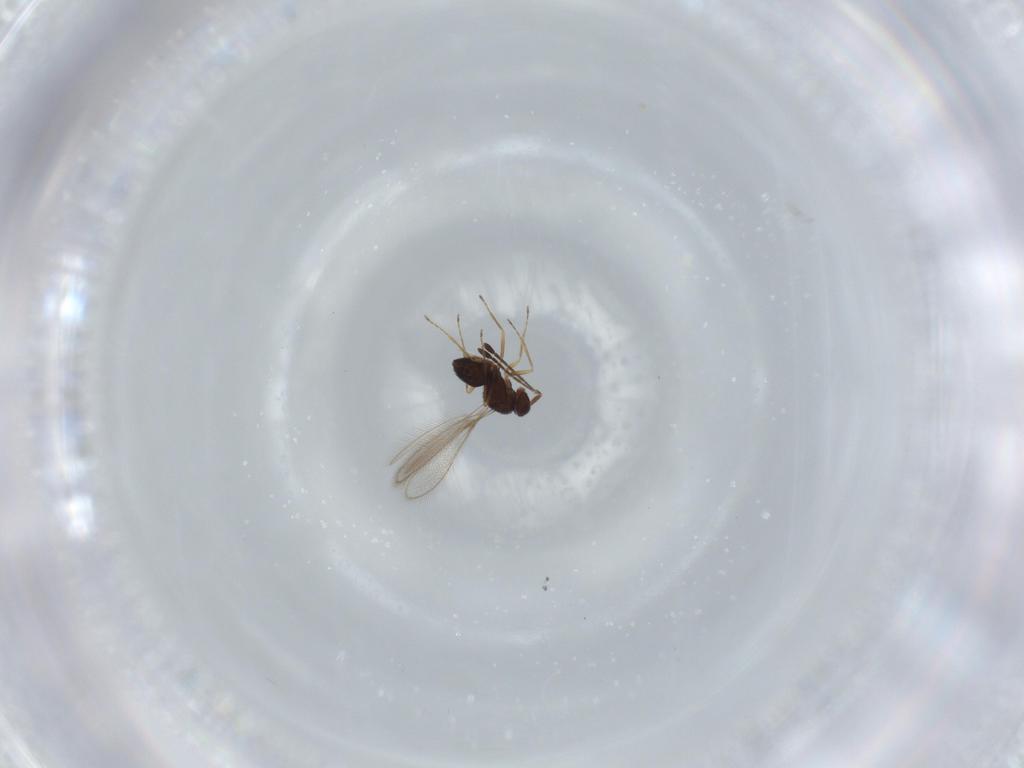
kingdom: Animalia
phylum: Arthropoda
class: Insecta
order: Hymenoptera
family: Mymaridae
